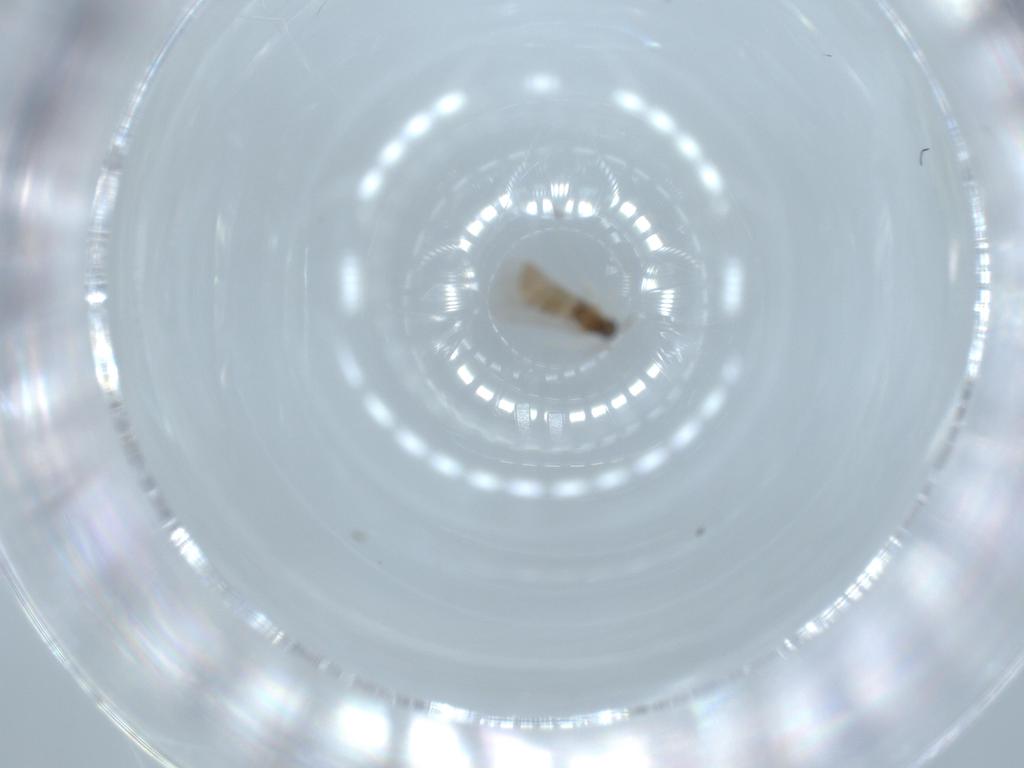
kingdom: Animalia
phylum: Arthropoda
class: Insecta
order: Diptera
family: Cecidomyiidae
